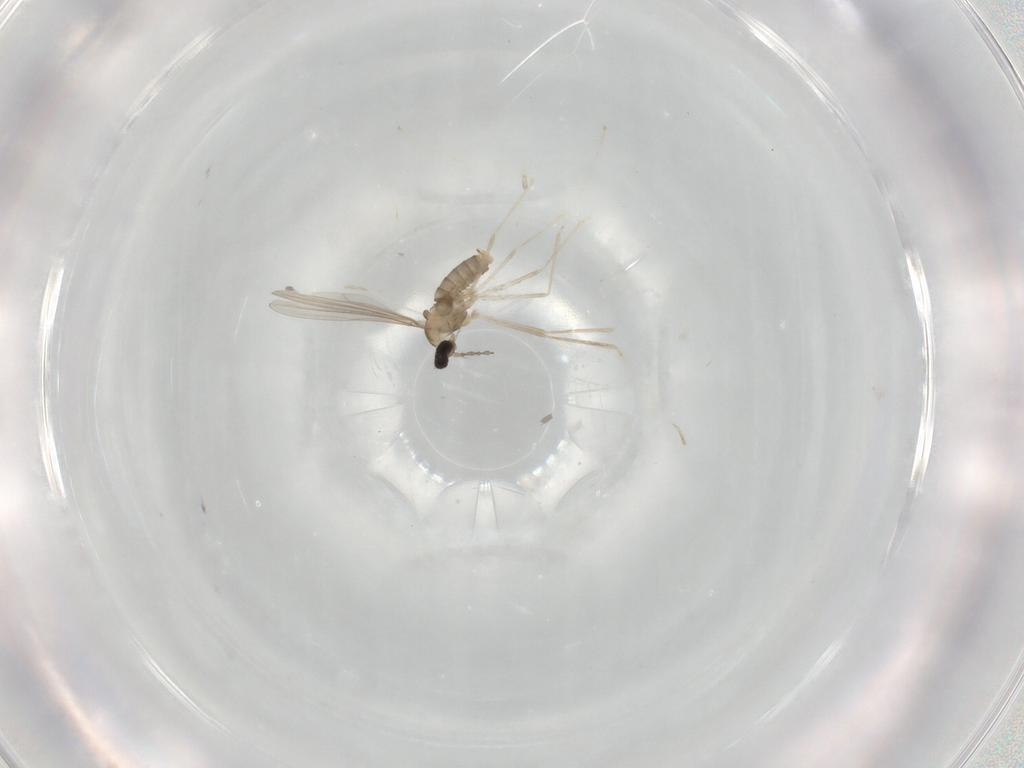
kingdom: Animalia
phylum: Arthropoda
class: Insecta
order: Diptera
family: Cecidomyiidae
